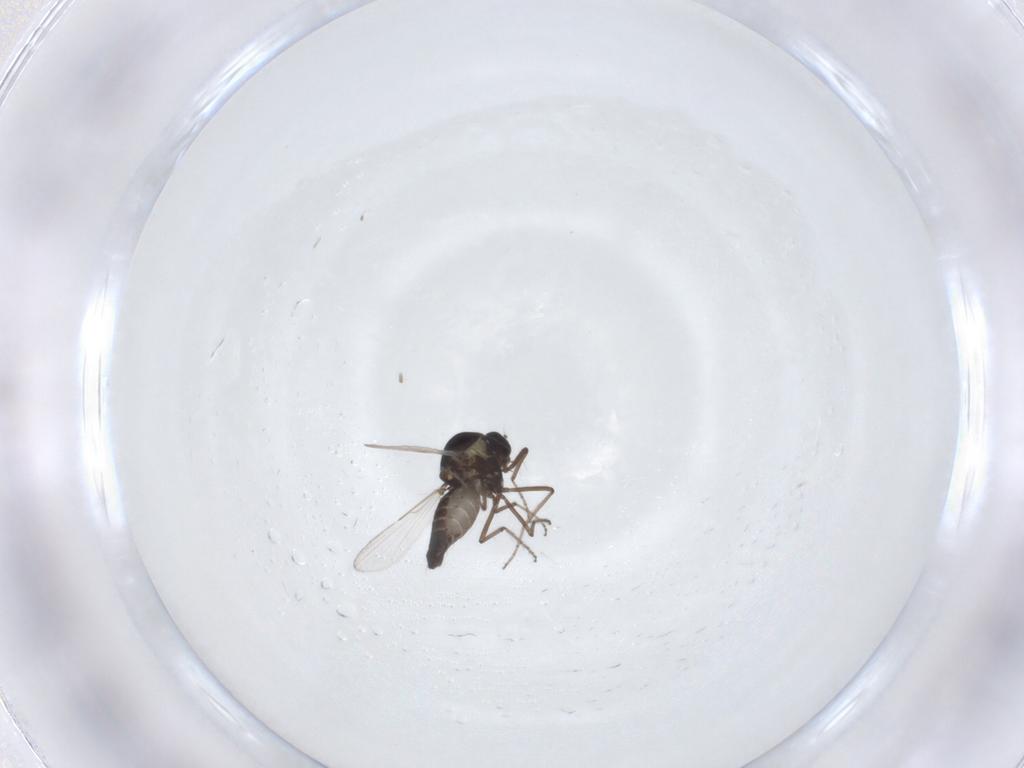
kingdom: Animalia
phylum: Arthropoda
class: Insecta
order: Diptera
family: Ceratopogonidae
